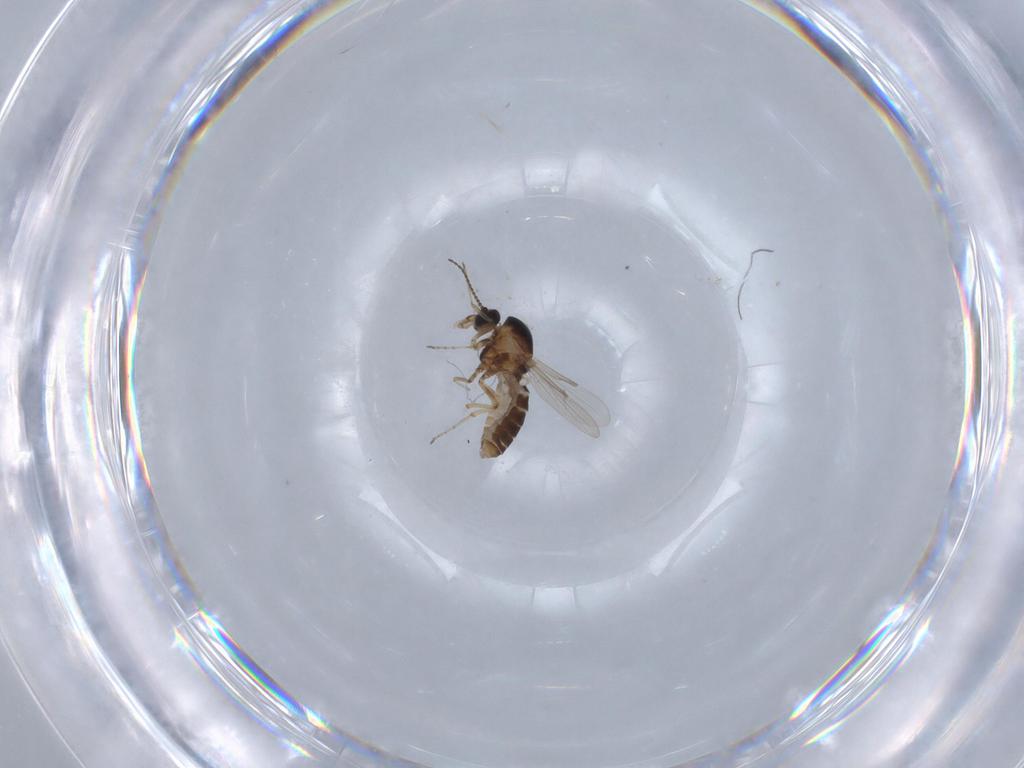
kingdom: Animalia
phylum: Arthropoda
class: Insecta
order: Diptera
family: Ceratopogonidae
